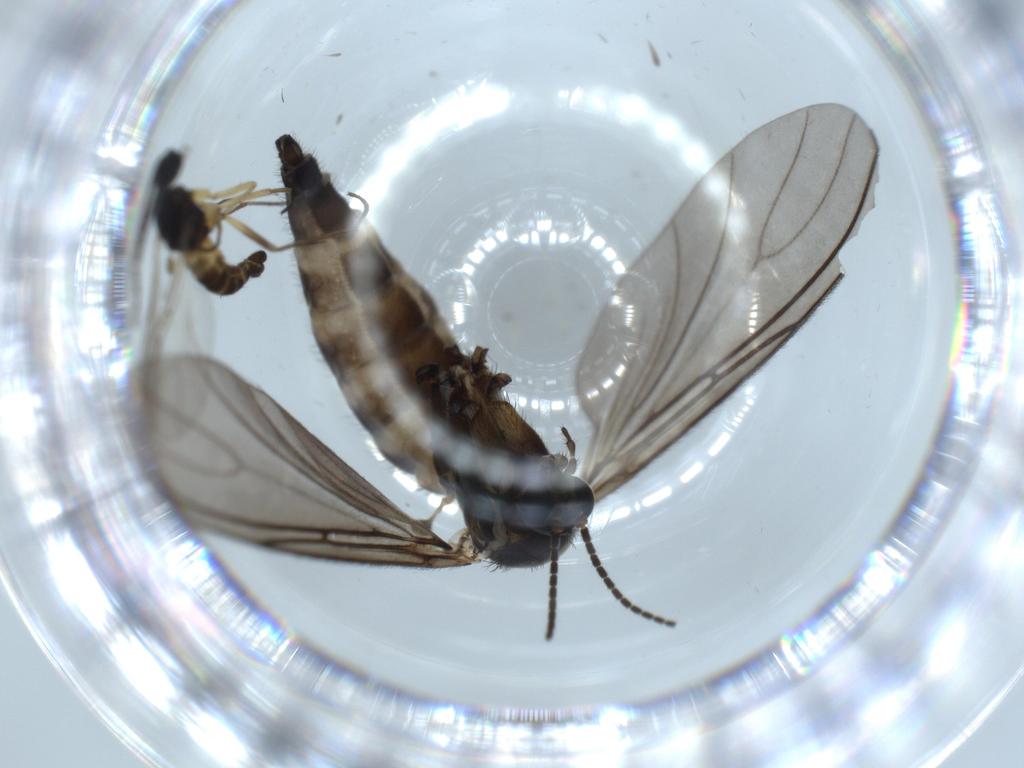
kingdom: Animalia
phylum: Arthropoda
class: Insecta
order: Diptera
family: Sciaridae
